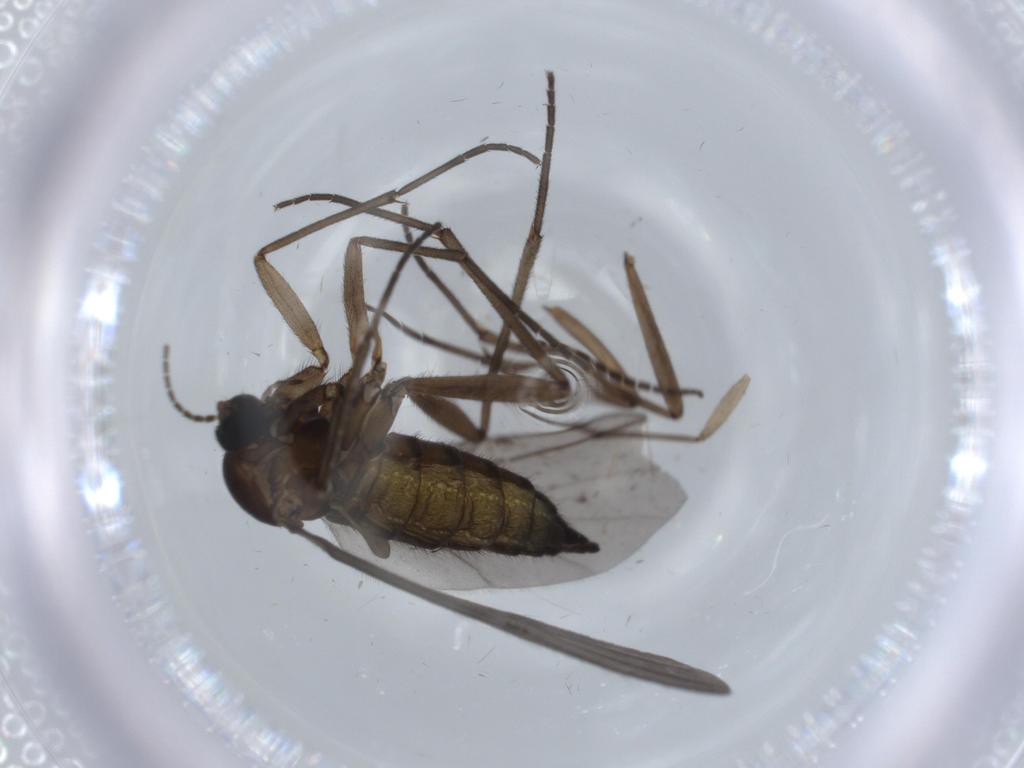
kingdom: Animalia
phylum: Arthropoda
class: Insecta
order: Diptera
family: Sciaridae
